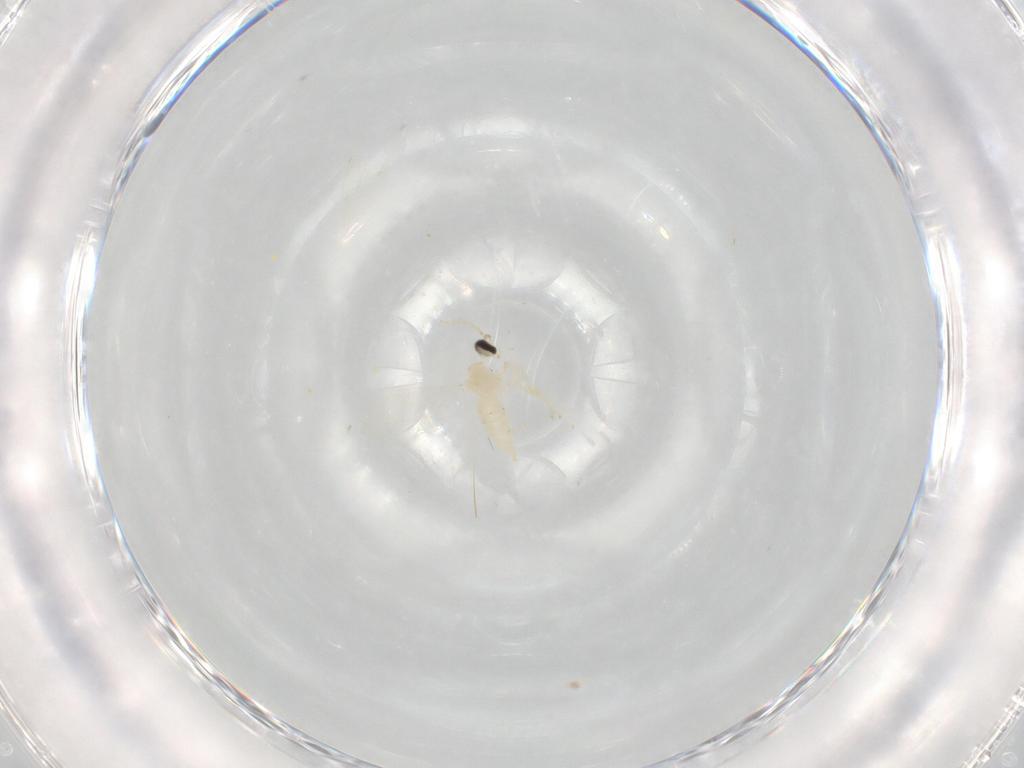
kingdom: Animalia
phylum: Arthropoda
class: Insecta
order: Diptera
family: Cecidomyiidae
